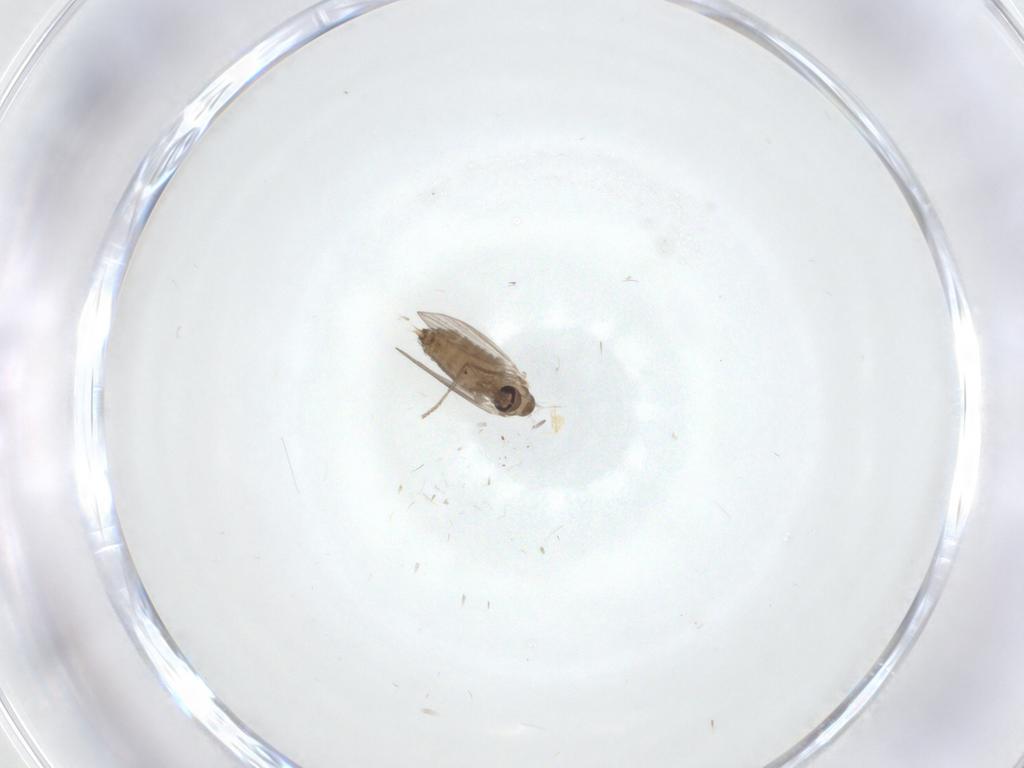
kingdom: Animalia
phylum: Arthropoda
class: Insecta
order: Diptera
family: Psychodidae
